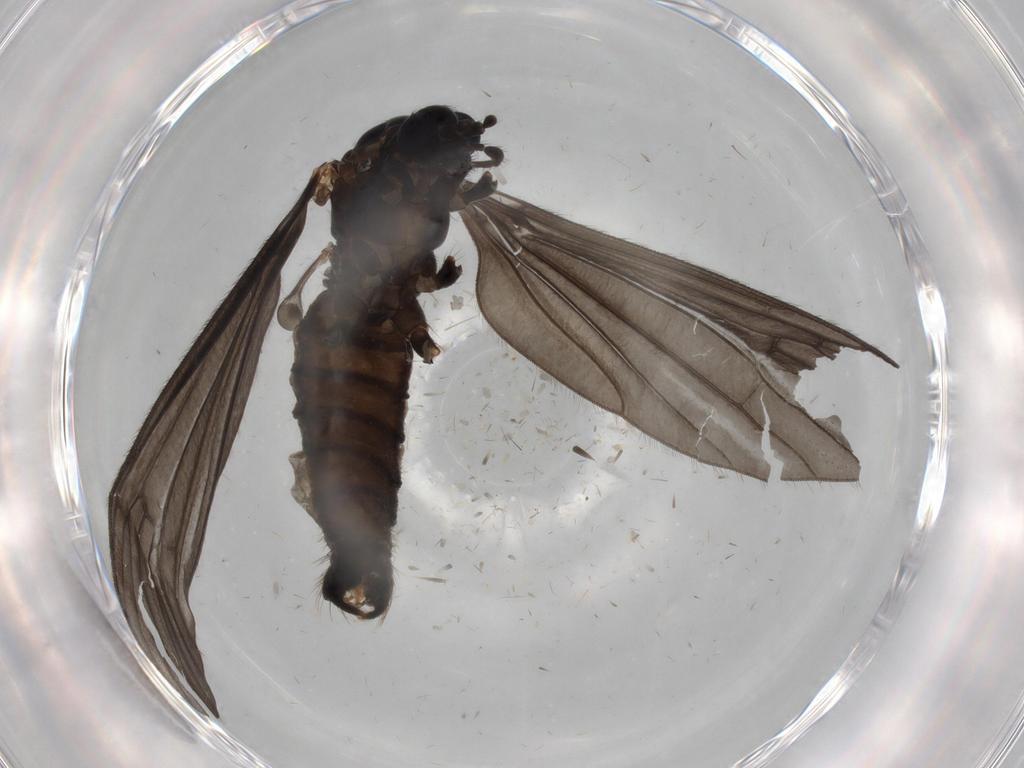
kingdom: Animalia
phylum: Arthropoda
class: Insecta
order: Diptera
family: Limoniidae
